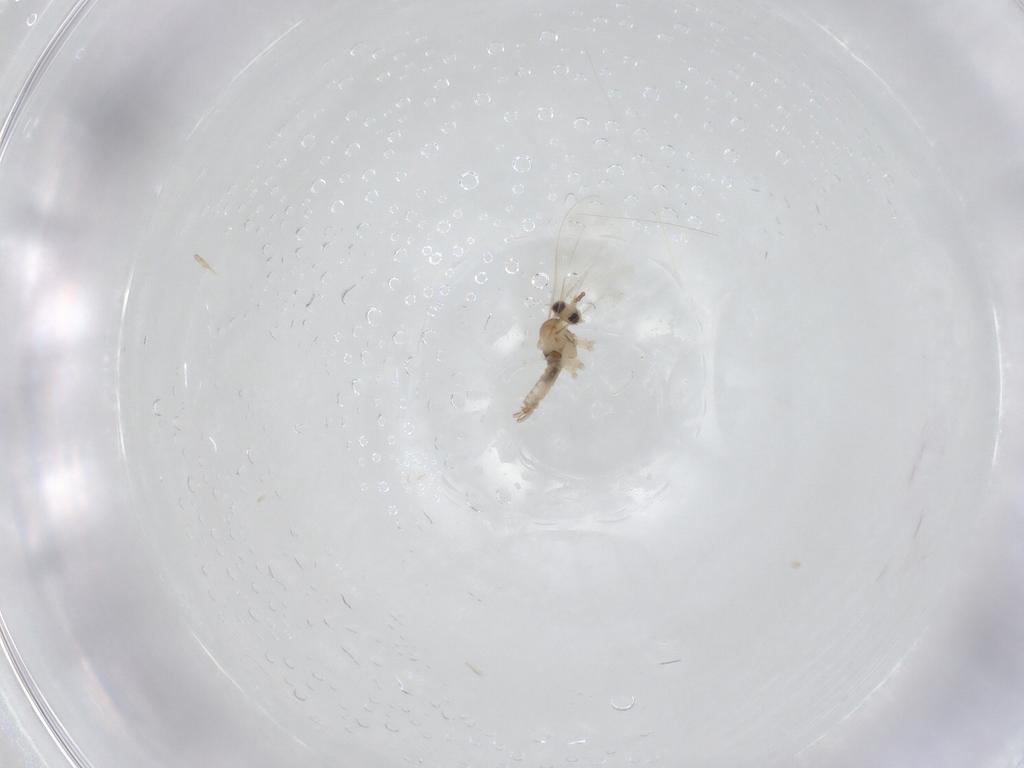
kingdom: Animalia
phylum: Arthropoda
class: Insecta
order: Diptera
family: Cecidomyiidae
